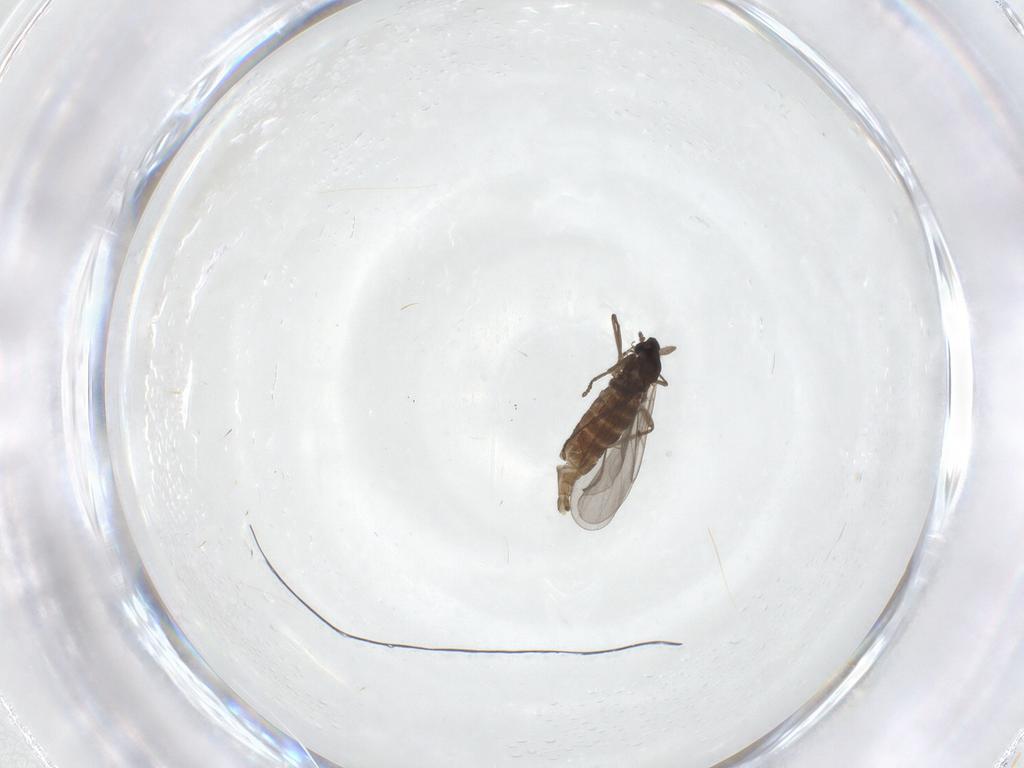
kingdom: Animalia
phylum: Arthropoda
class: Insecta
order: Diptera
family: Cecidomyiidae
